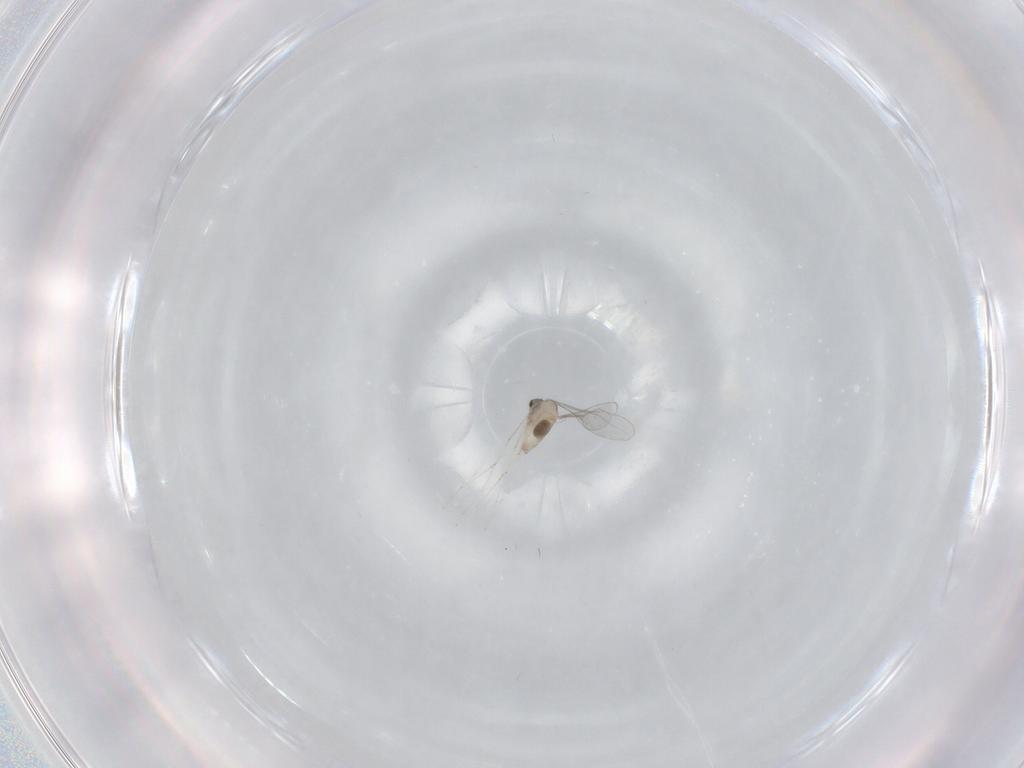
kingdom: Animalia
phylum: Arthropoda
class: Insecta
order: Diptera
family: Cecidomyiidae
